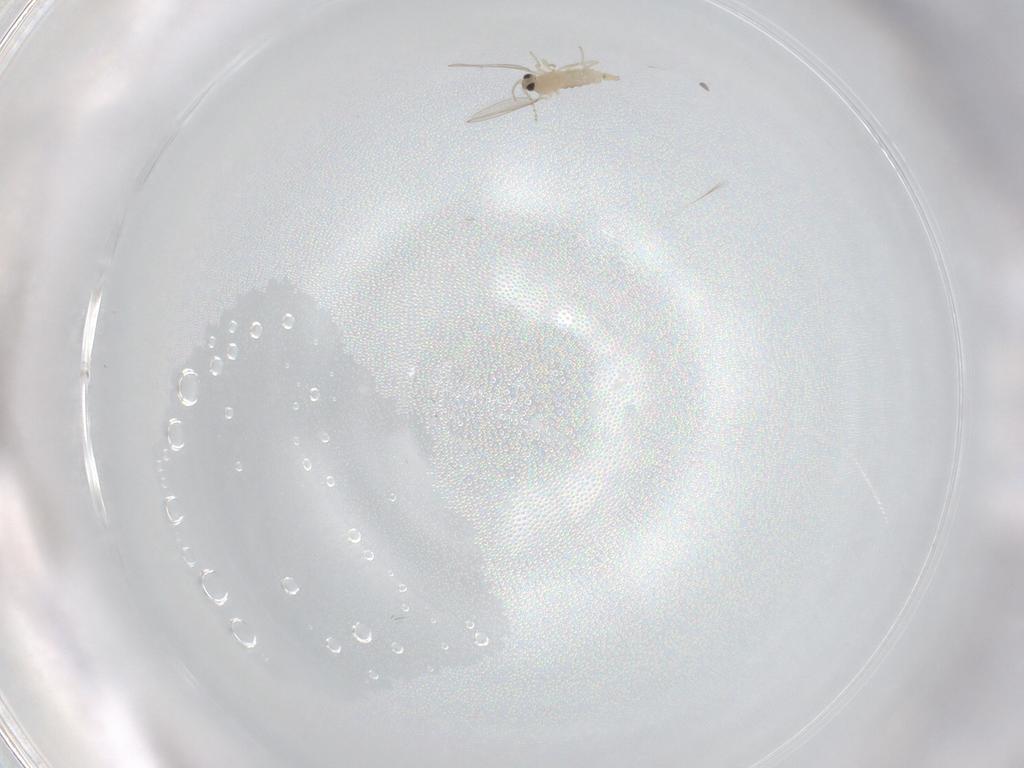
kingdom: Animalia
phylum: Arthropoda
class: Insecta
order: Diptera
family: Cecidomyiidae
